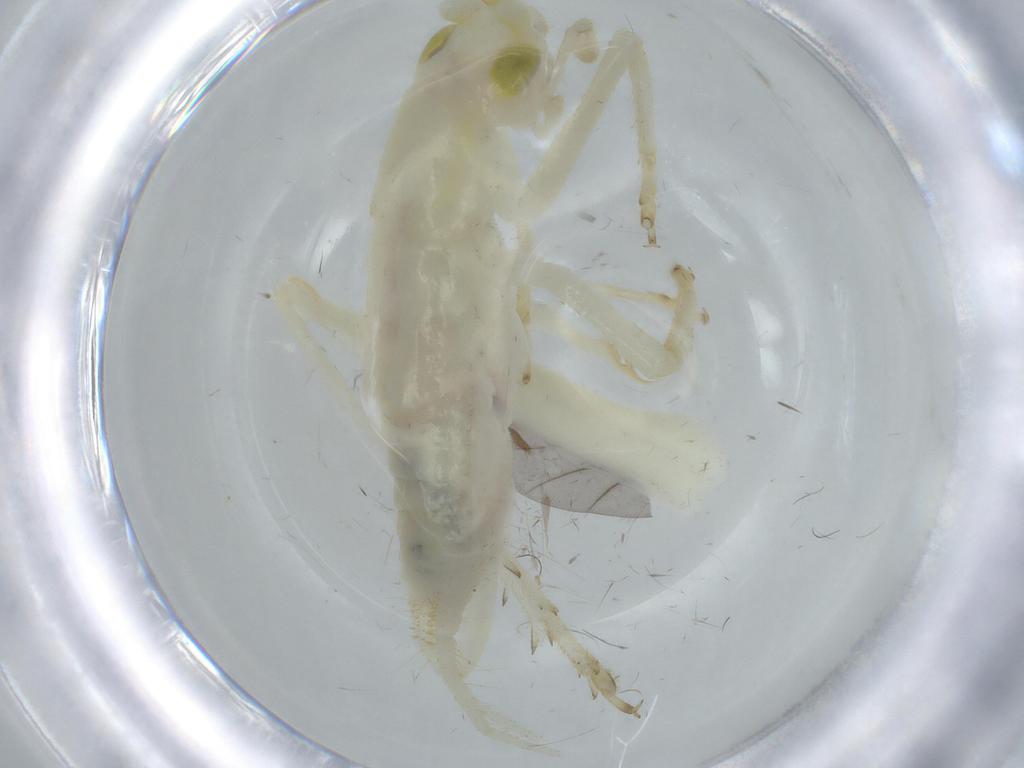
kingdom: Animalia
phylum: Arthropoda
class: Insecta
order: Orthoptera
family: Trigonidiidae
